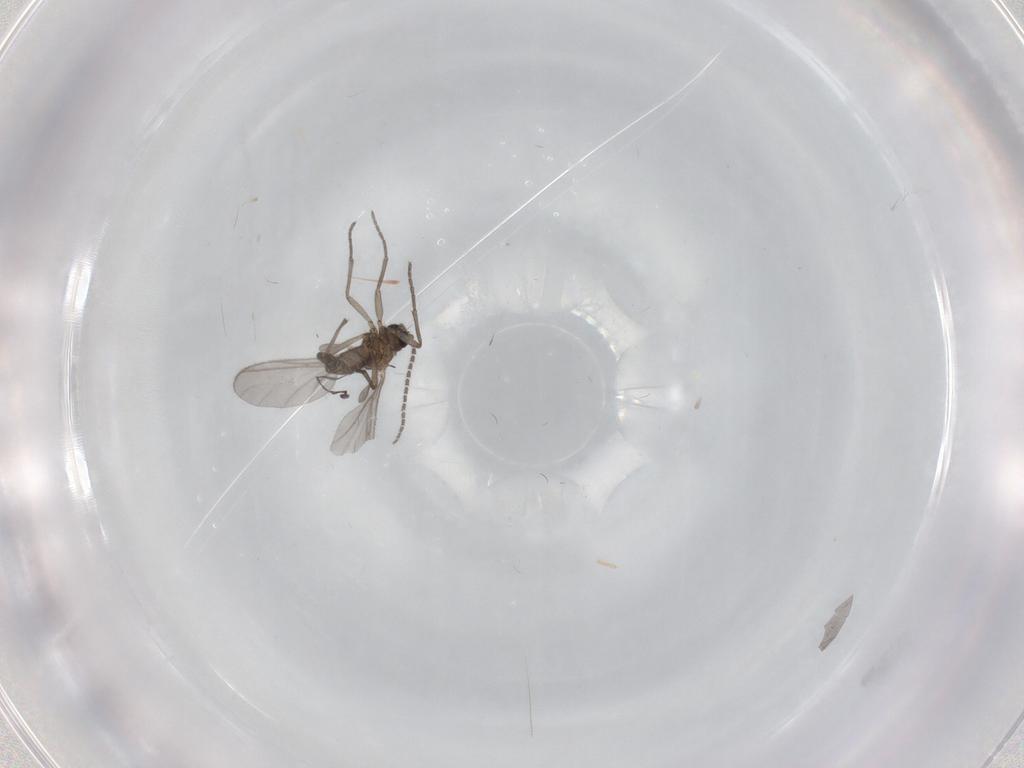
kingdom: Animalia
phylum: Arthropoda
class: Insecta
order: Diptera
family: Sciaridae
